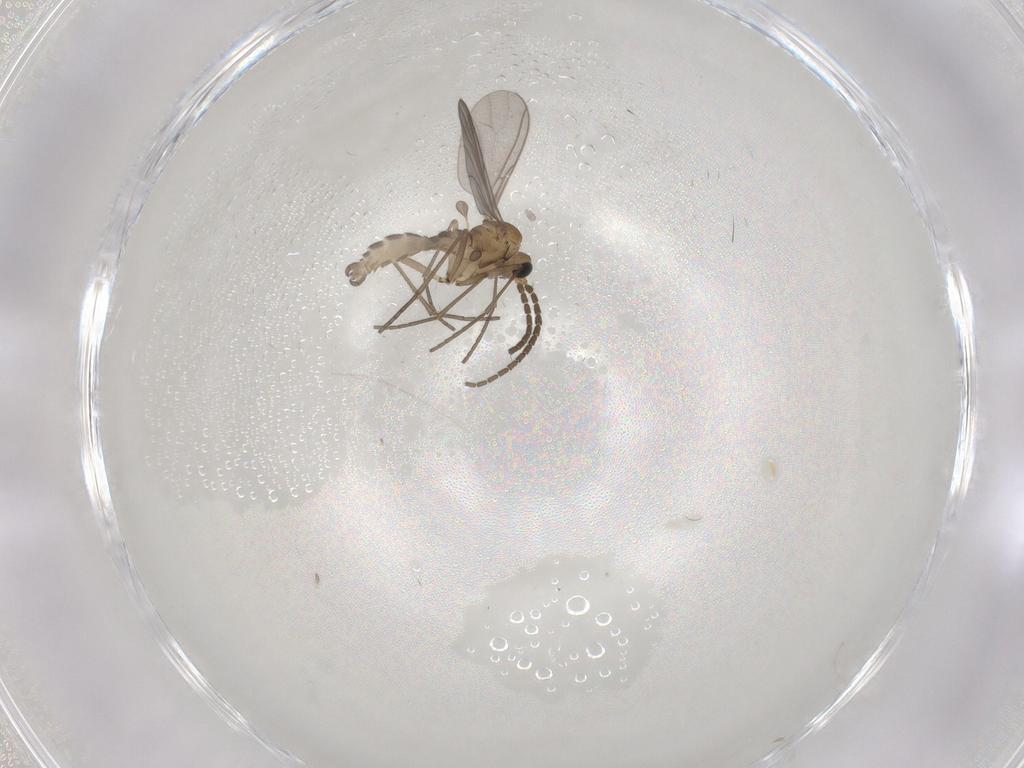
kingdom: Animalia
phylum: Arthropoda
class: Insecta
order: Diptera
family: Sciaridae
